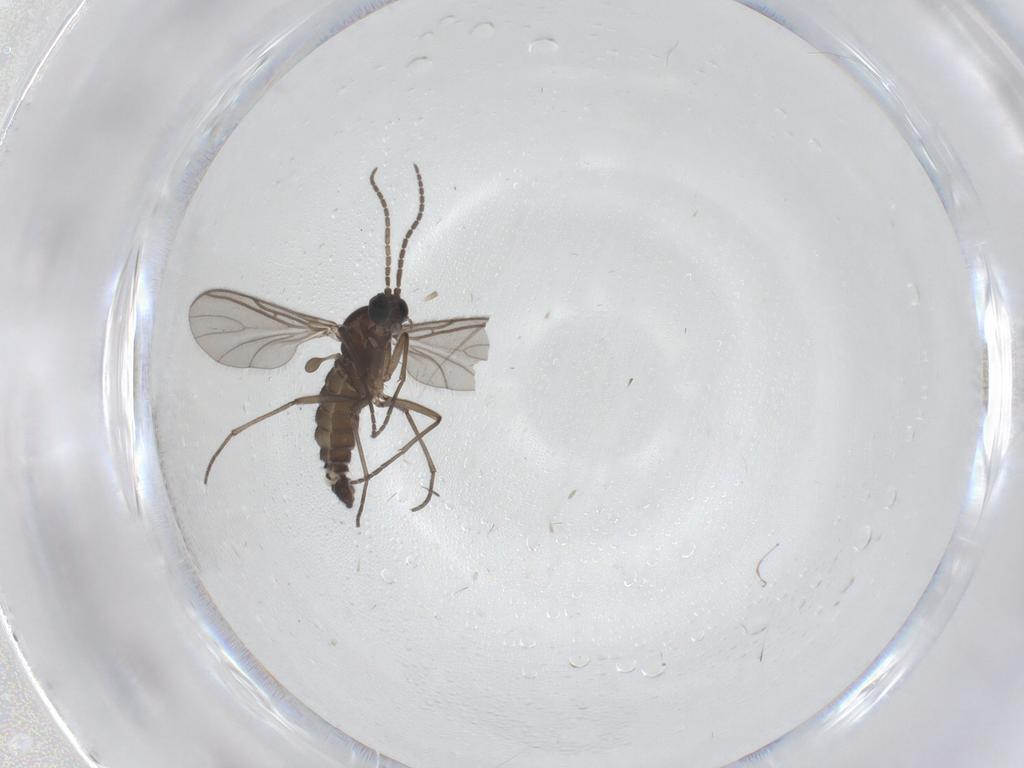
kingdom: Animalia
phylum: Arthropoda
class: Insecta
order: Diptera
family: Sciaridae
